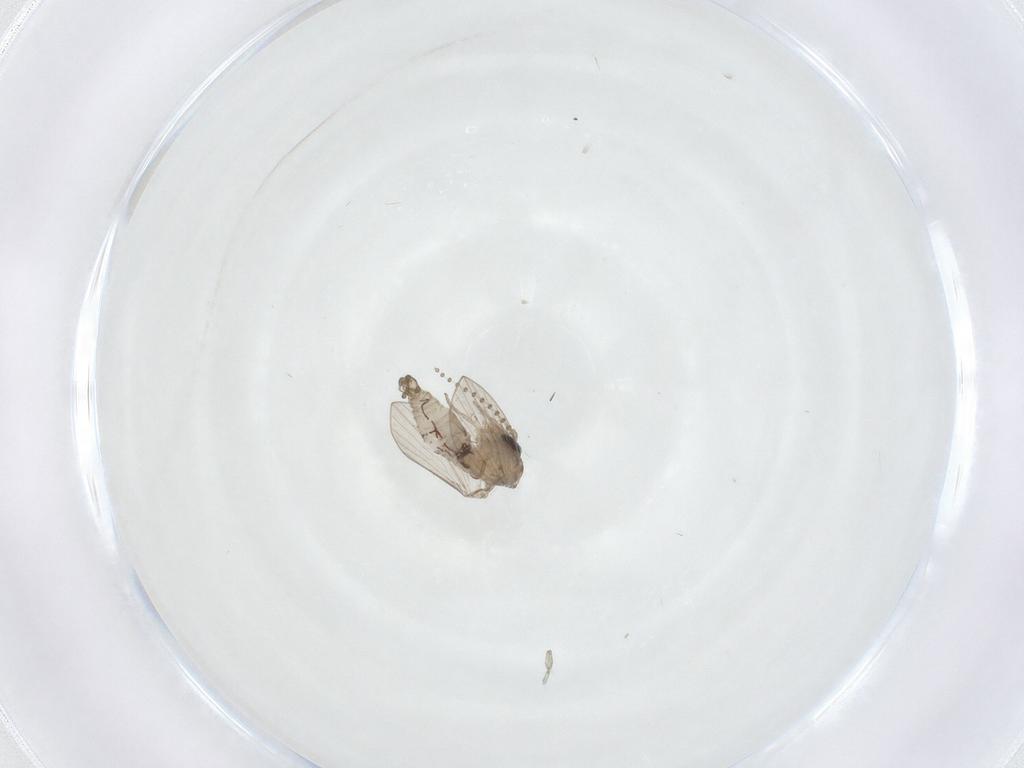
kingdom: Animalia
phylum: Arthropoda
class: Insecta
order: Diptera
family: Psychodidae
